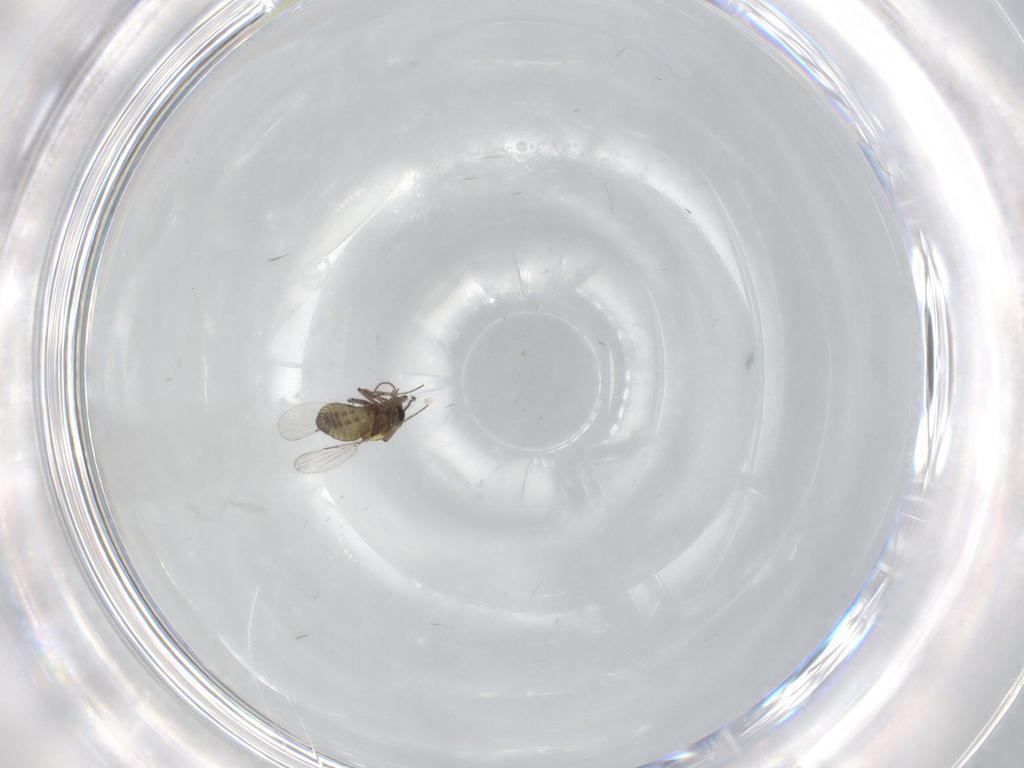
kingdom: Animalia
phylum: Arthropoda
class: Insecta
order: Diptera
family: Ceratopogonidae
